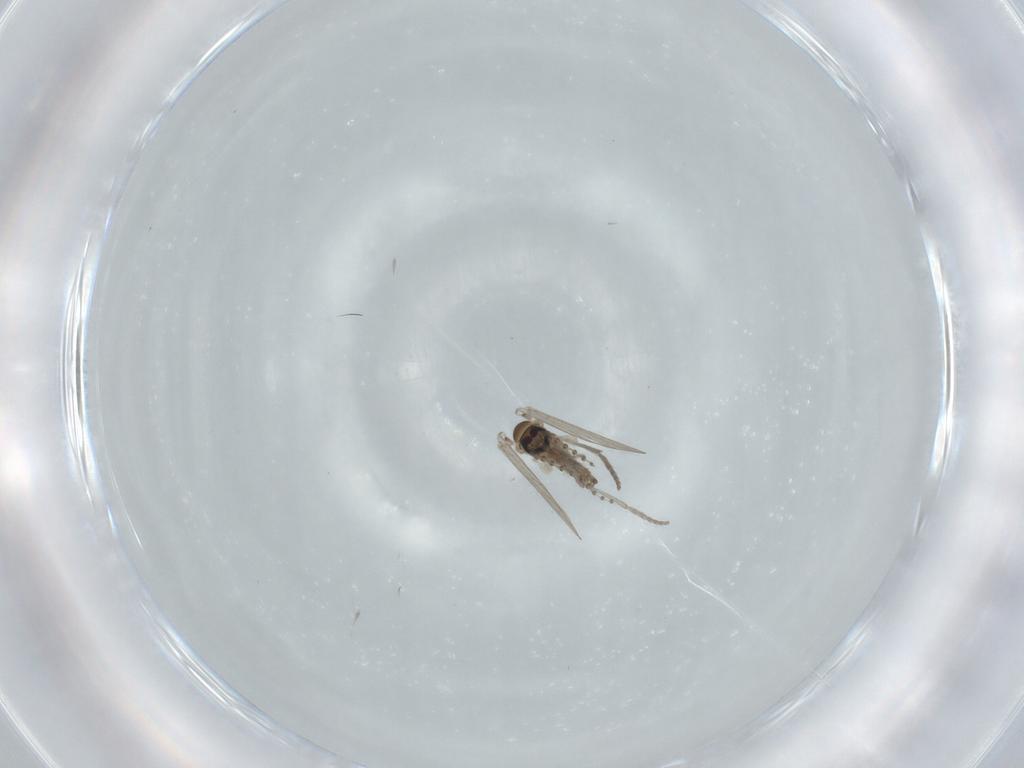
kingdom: Animalia
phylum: Arthropoda
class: Insecta
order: Diptera
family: Psychodidae
